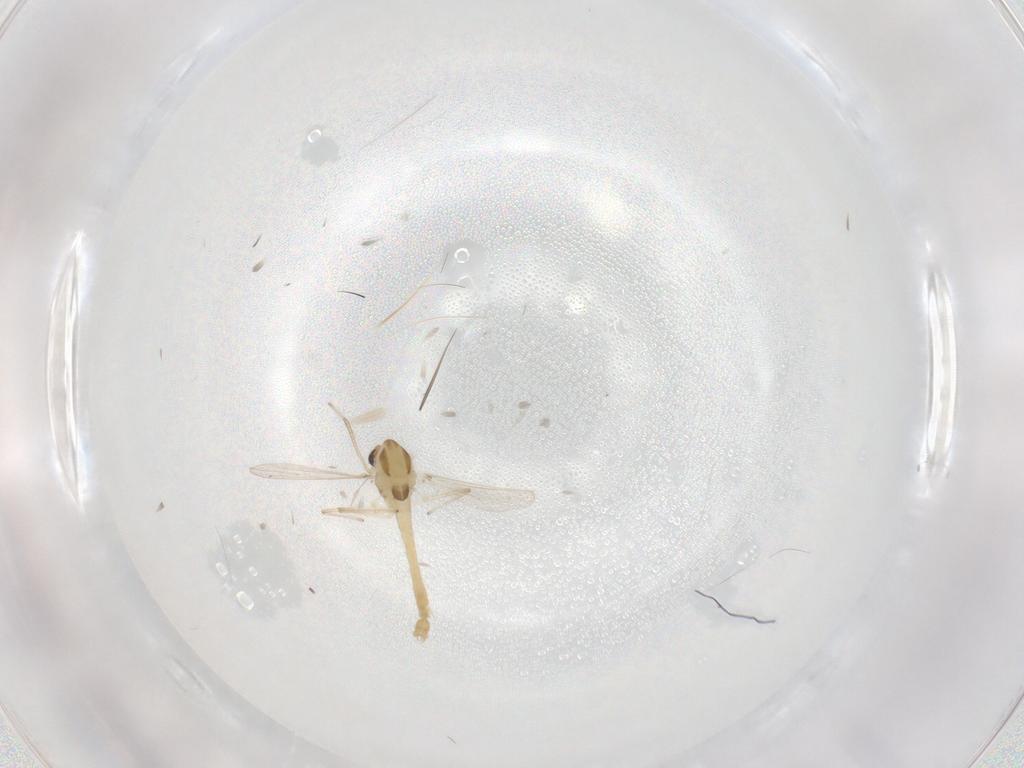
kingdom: Animalia
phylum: Arthropoda
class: Insecta
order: Diptera
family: Chironomidae
